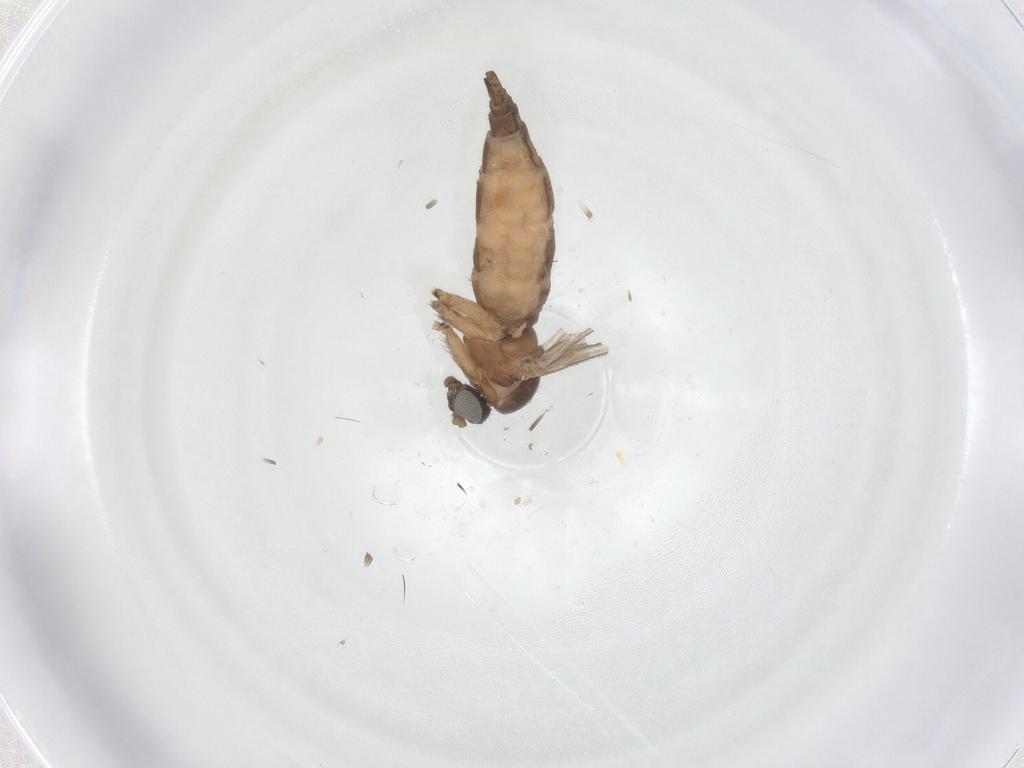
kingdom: Animalia
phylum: Arthropoda
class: Insecta
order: Diptera
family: Sciaridae
